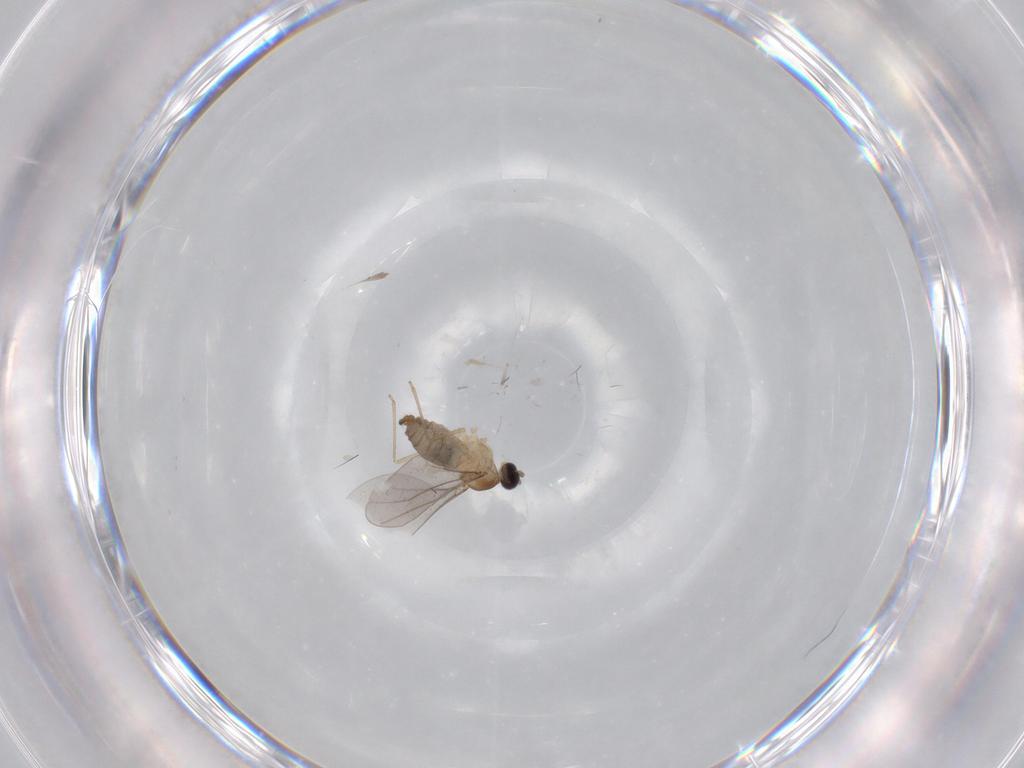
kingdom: Animalia
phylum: Arthropoda
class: Insecta
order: Diptera
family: Cecidomyiidae
